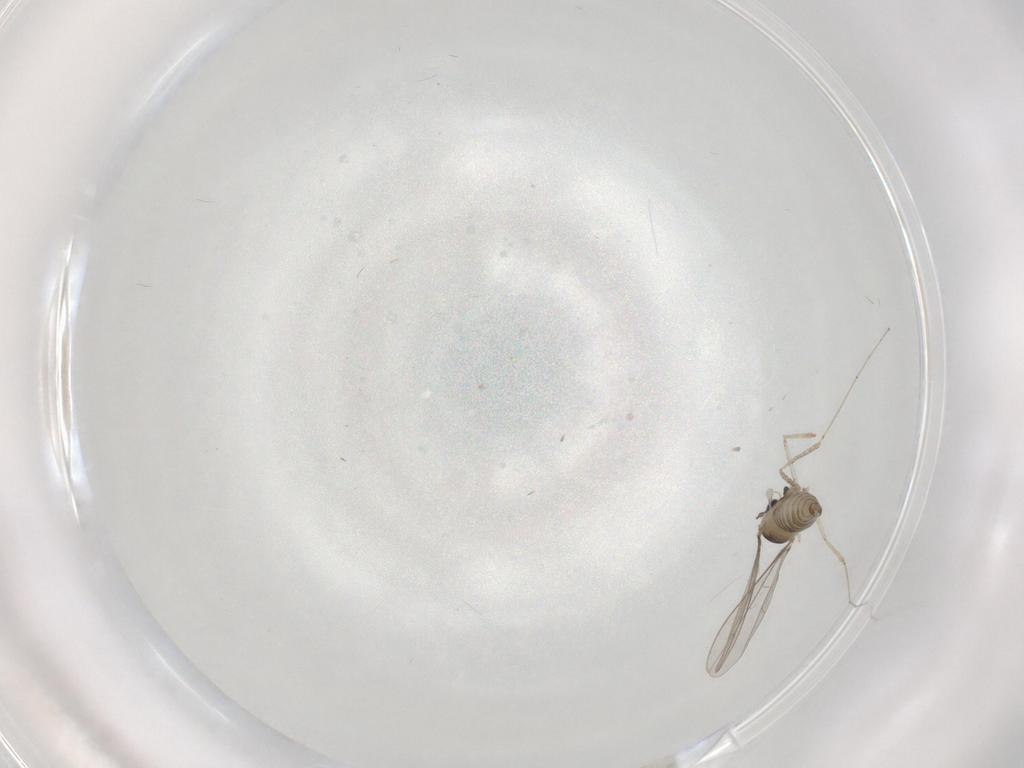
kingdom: Animalia
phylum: Arthropoda
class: Insecta
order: Diptera
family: Cecidomyiidae
